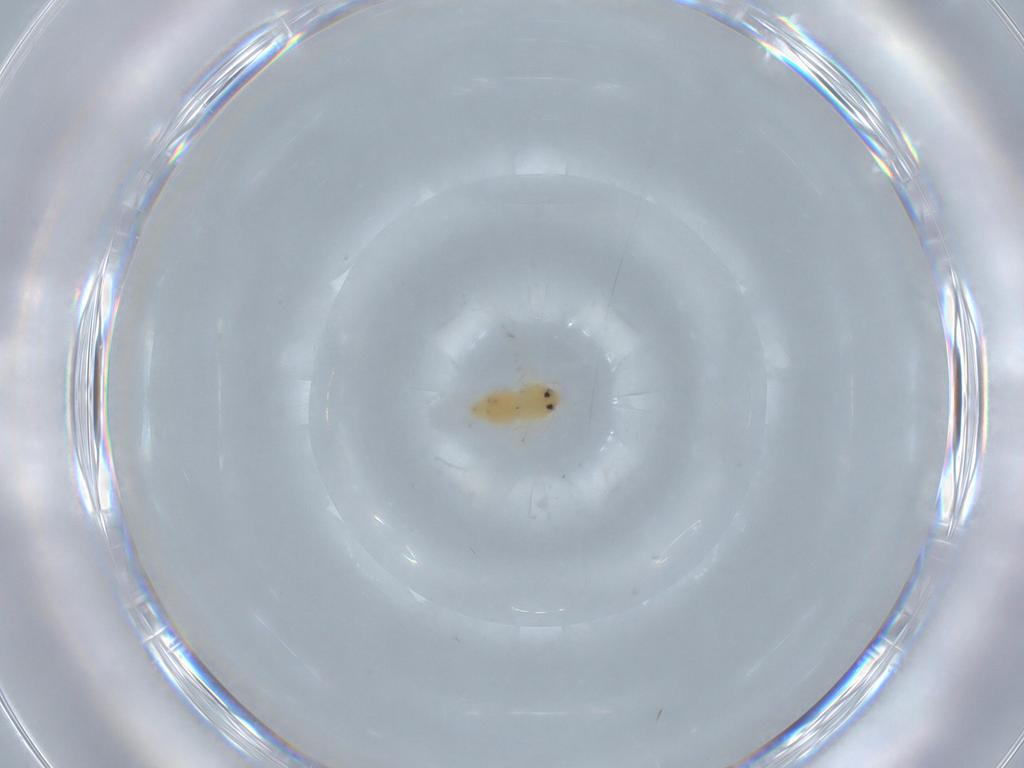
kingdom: Animalia
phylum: Arthropoda
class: Insecta
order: Hemiptera
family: Aleyrodidae
